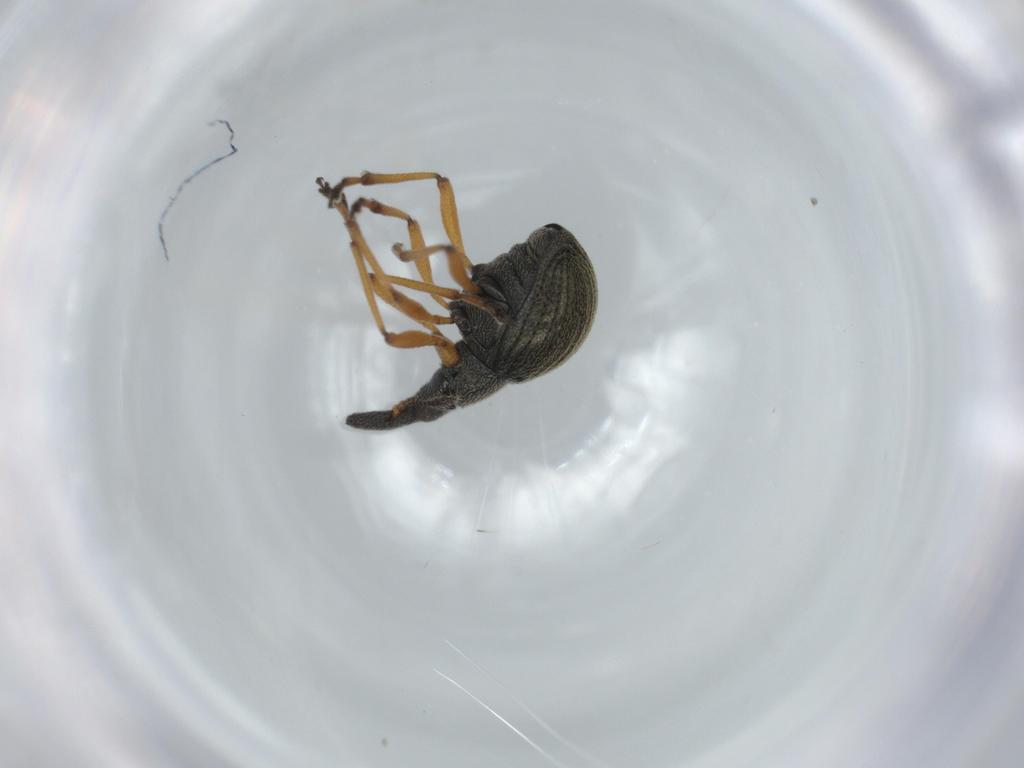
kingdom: Animalia
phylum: Arthropoda
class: Insecta
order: Coleoptera
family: Brentidae
